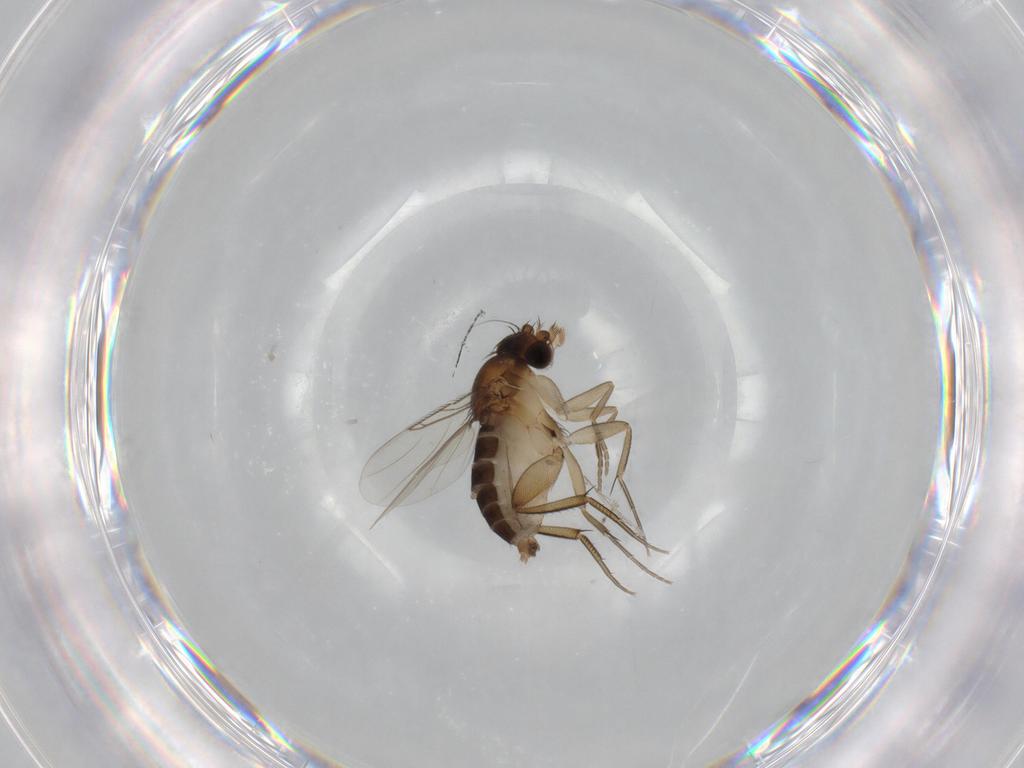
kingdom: Animalia
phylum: Arthropoda
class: Insecta
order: Diptera
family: Phoridae
